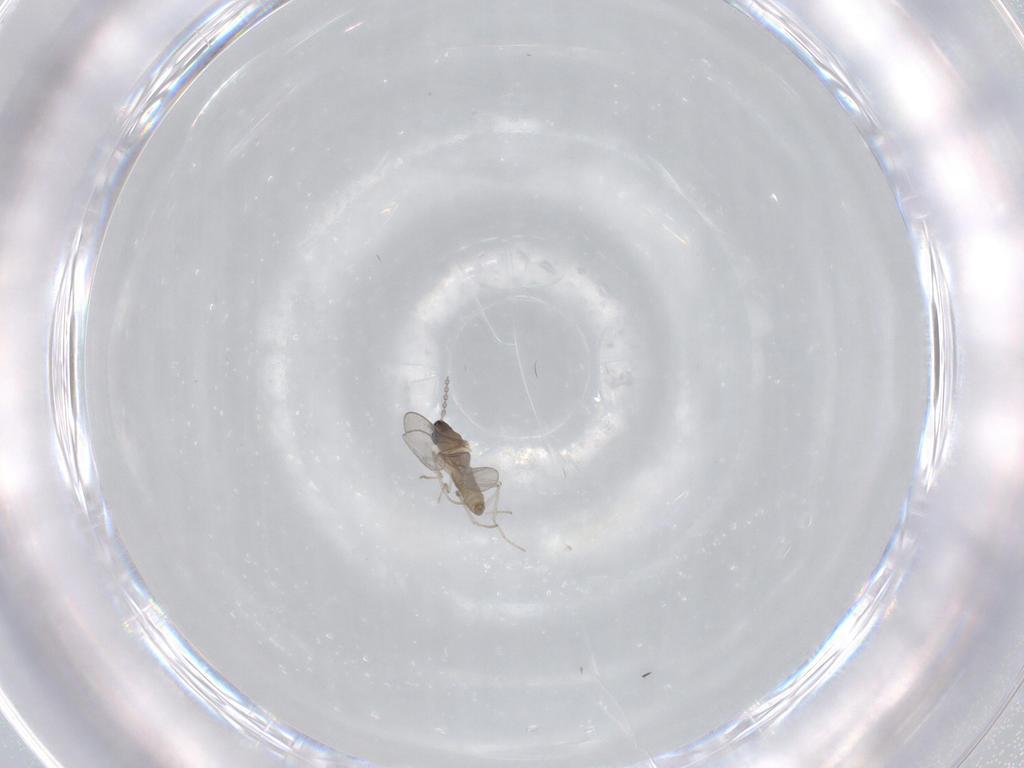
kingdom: Animalia
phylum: Arthropoda
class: Insecta
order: Diptera
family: Cecidomyiidae
